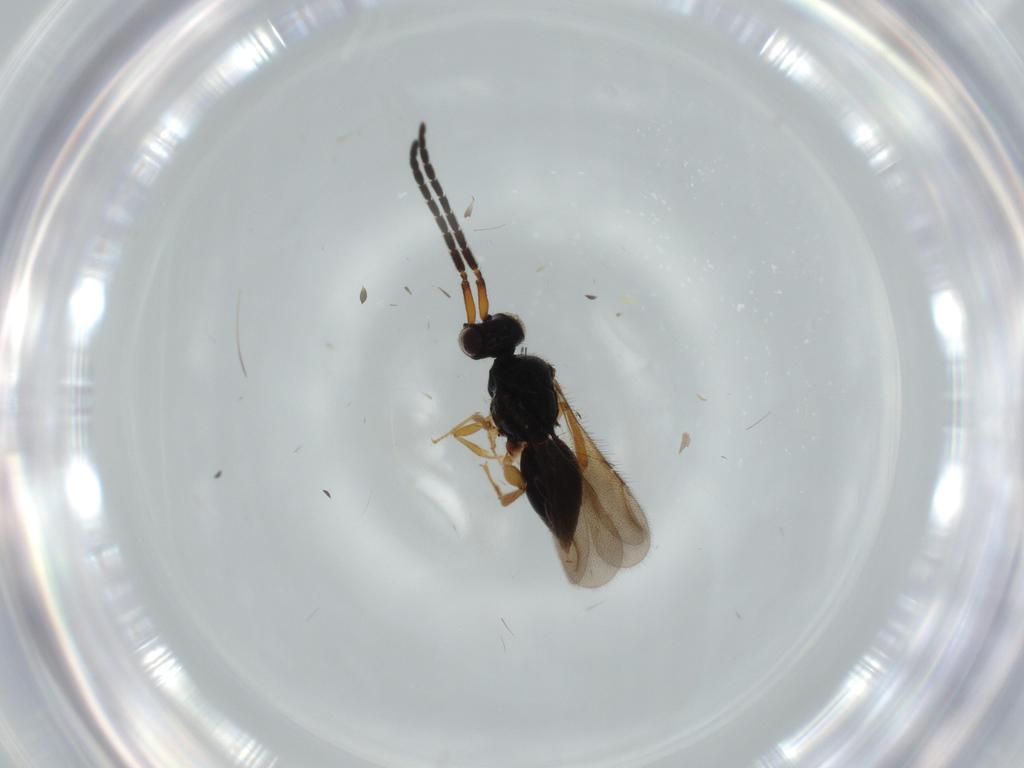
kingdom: Animalia
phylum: Arthropoda
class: Insecta
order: Hymenoptera
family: Ceraphronidae
